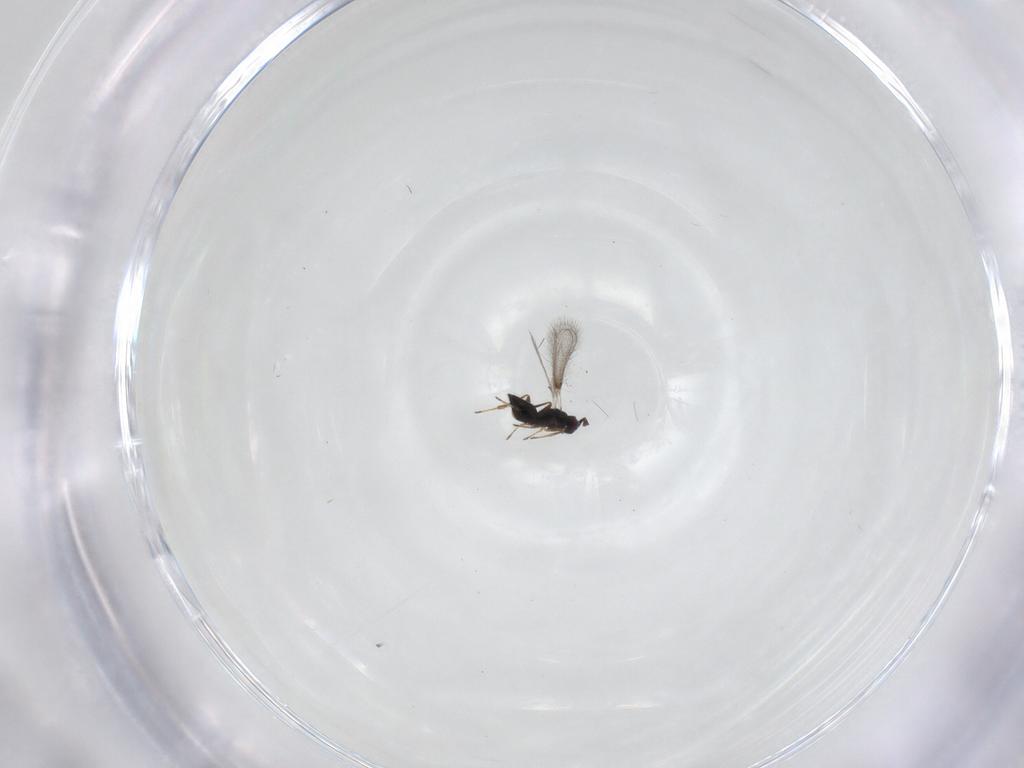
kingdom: Animalia
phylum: Arthropoda
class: Insecta
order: Hymenoptera
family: Mymaridae
